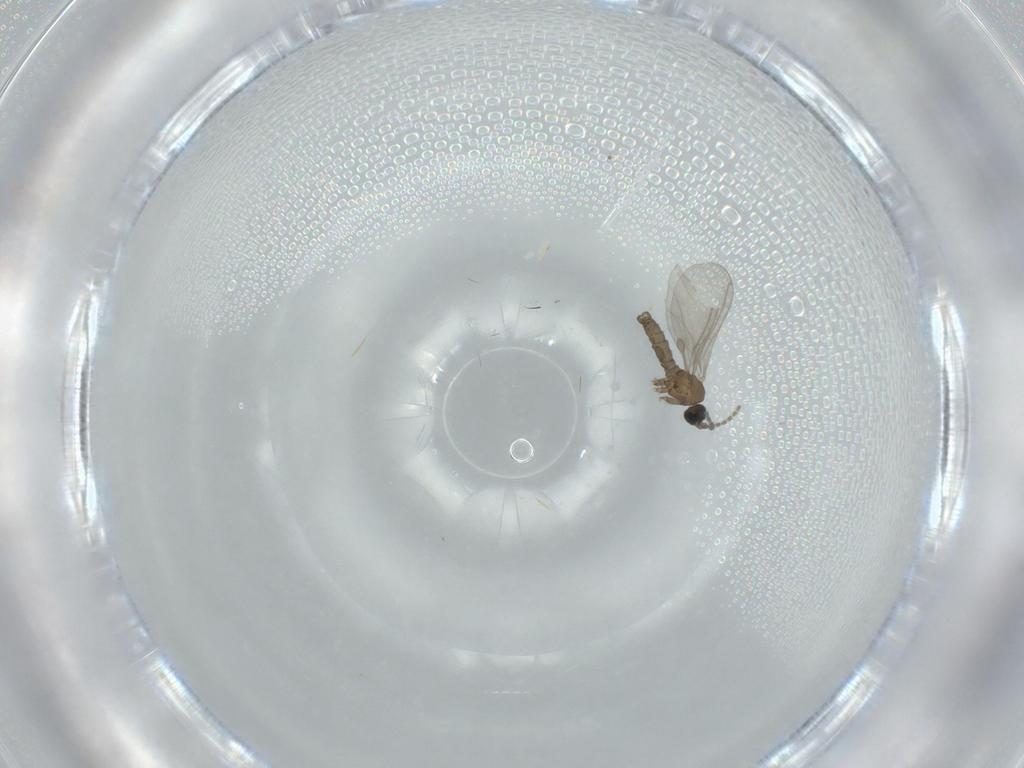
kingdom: Animalia
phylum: Arthropoda
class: Insecta
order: Diptera
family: Sciaridae
